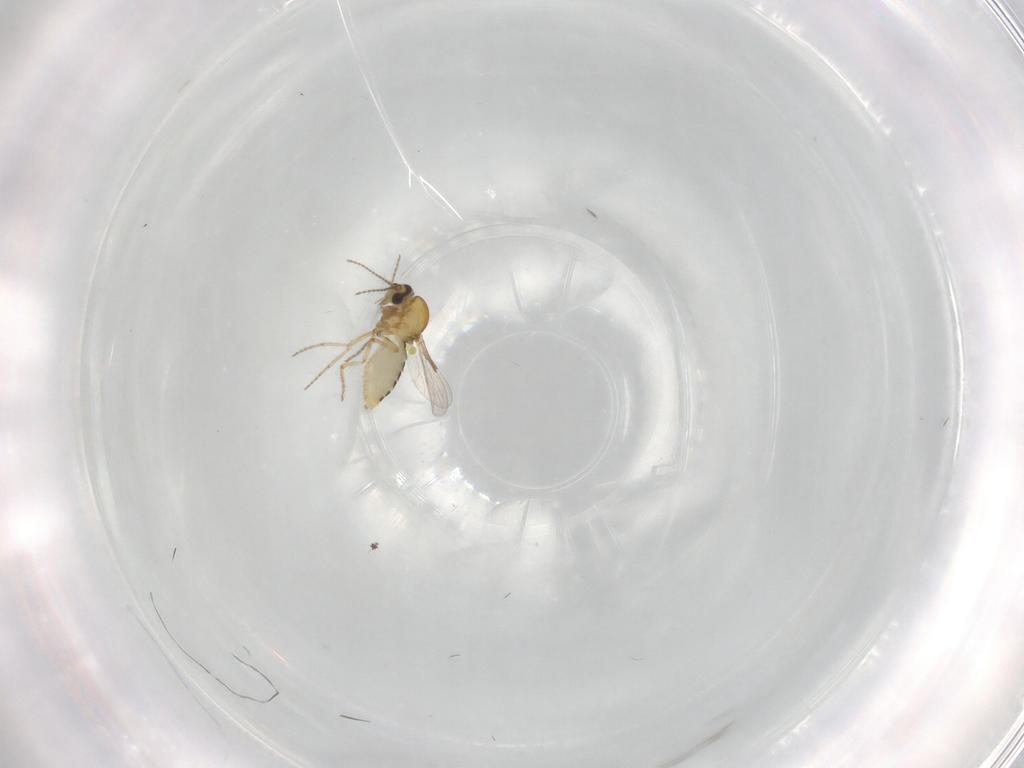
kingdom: Animalia
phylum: Arthropoda
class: Insecta
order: Diptera
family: Ceratopogonidae
